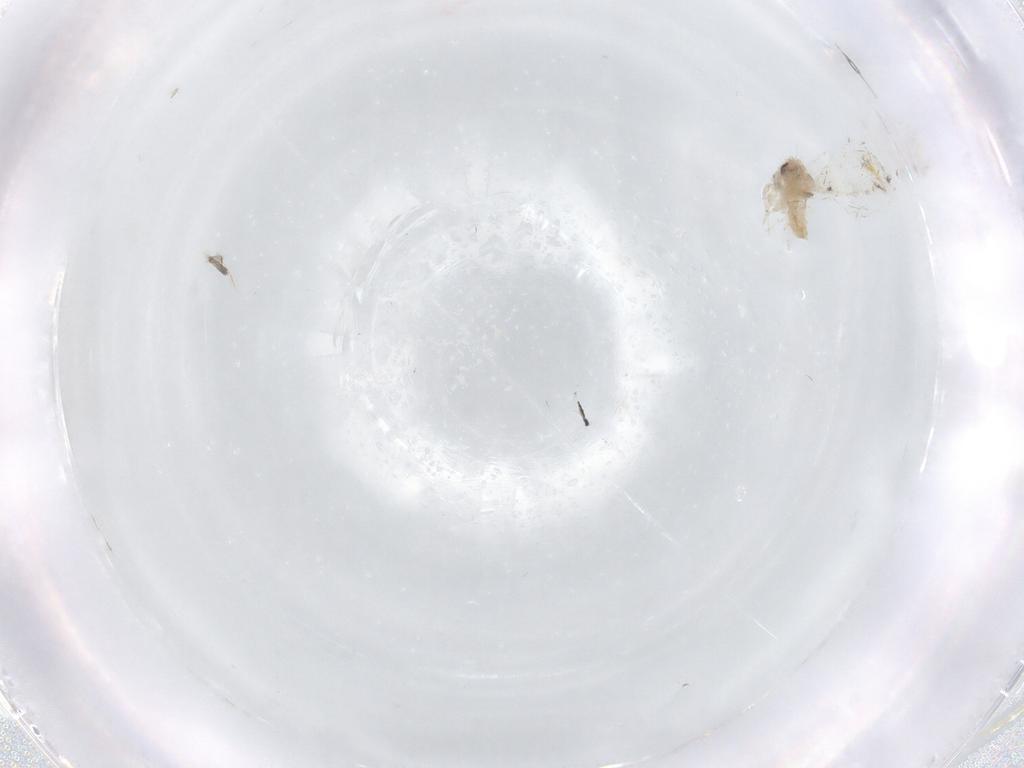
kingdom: Animalia
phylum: Arthropoda
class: Insecta
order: Hemiptera
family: Aleyrodidae
